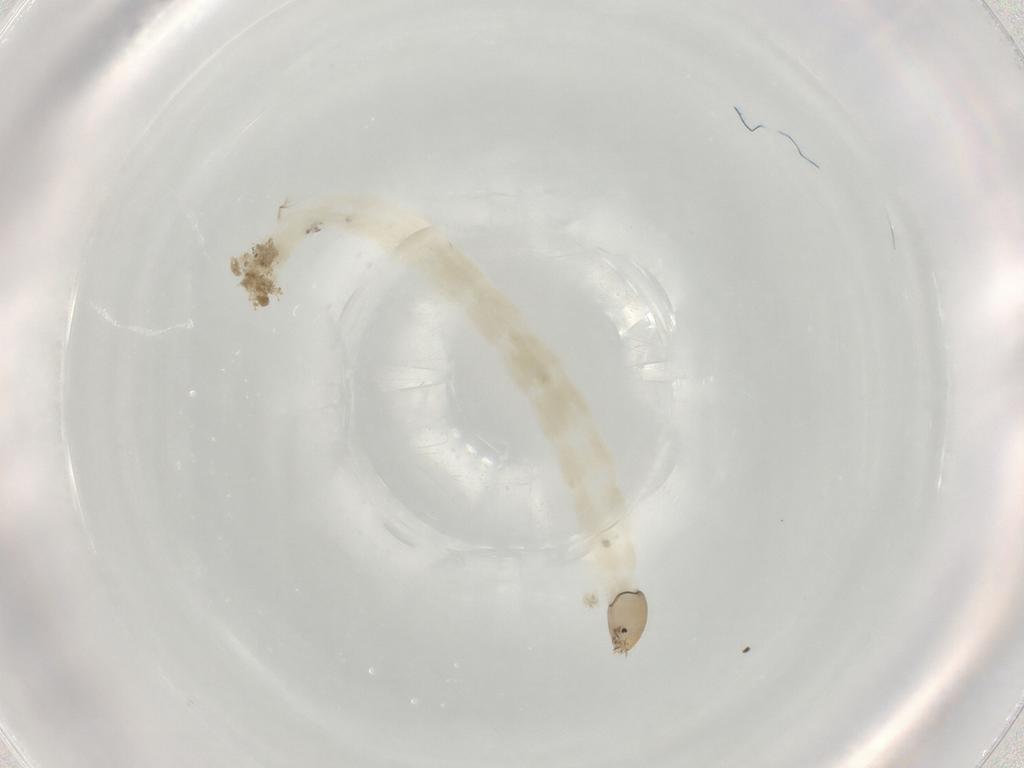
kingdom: Animalia
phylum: Arthropoda
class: Insecta
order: Diptera
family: Chironomidae
